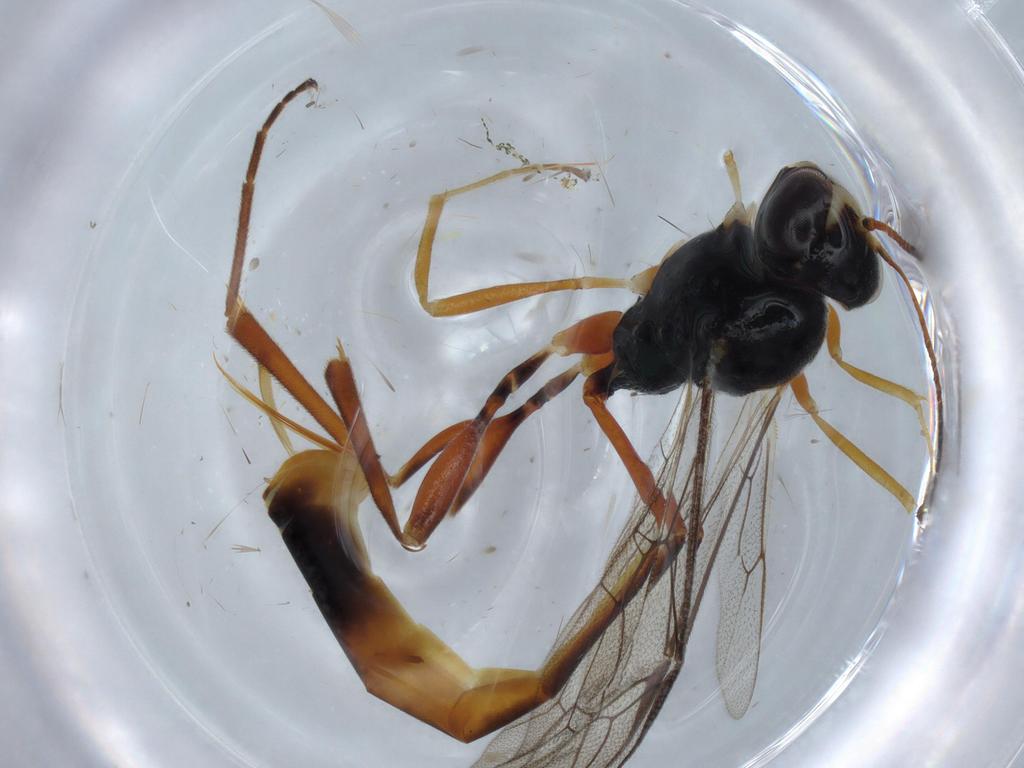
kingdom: Animalia
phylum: Arthropoda
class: Insecta
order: Hymenoptera
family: Ichneumonidae
